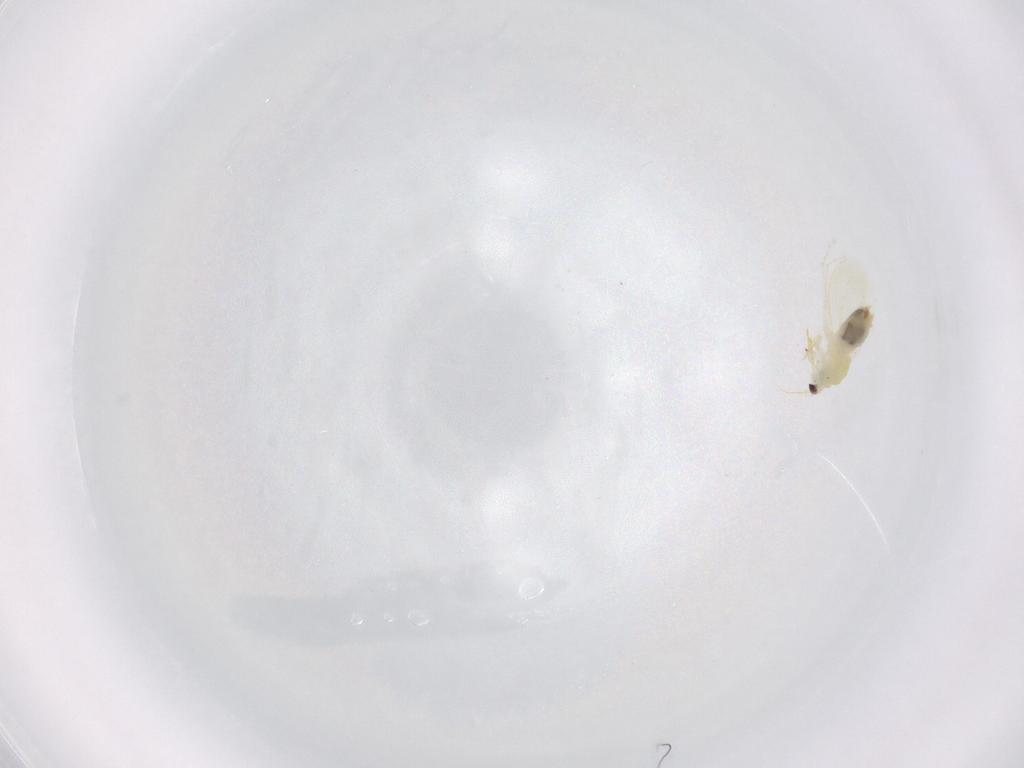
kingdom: Animalia
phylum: Arthropoda
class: Insecta
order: Hemiptera
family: Aleyrodidae
